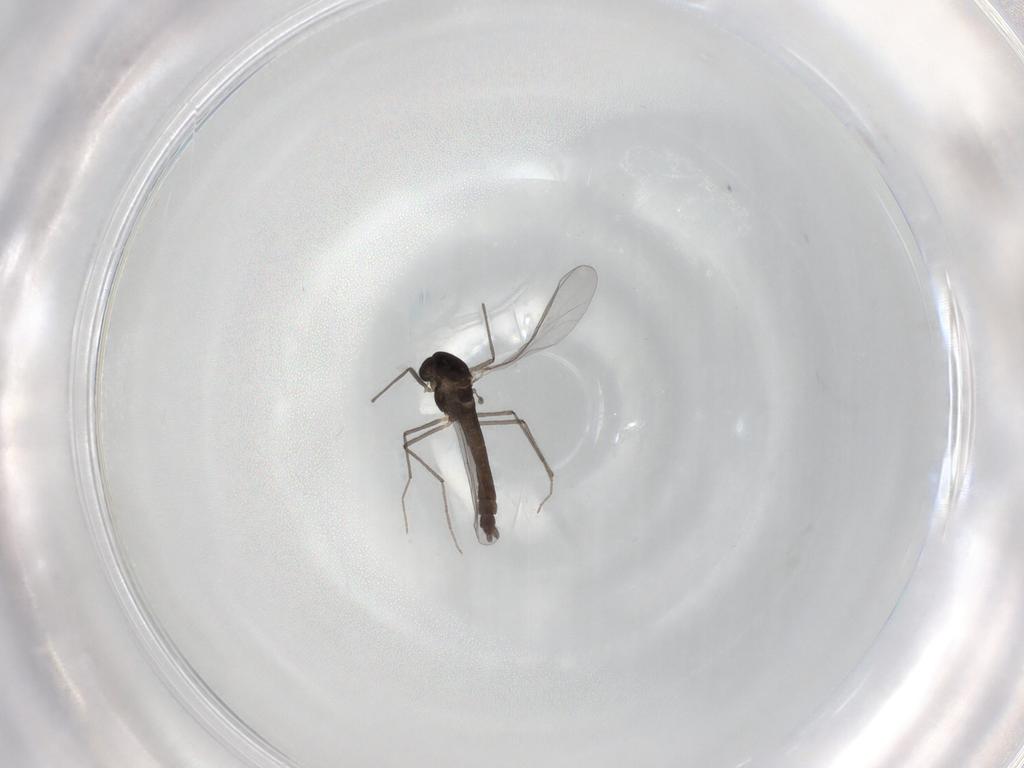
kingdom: Animalia
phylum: Arthropoda
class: Insecta
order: Diptera
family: Chironomidae
